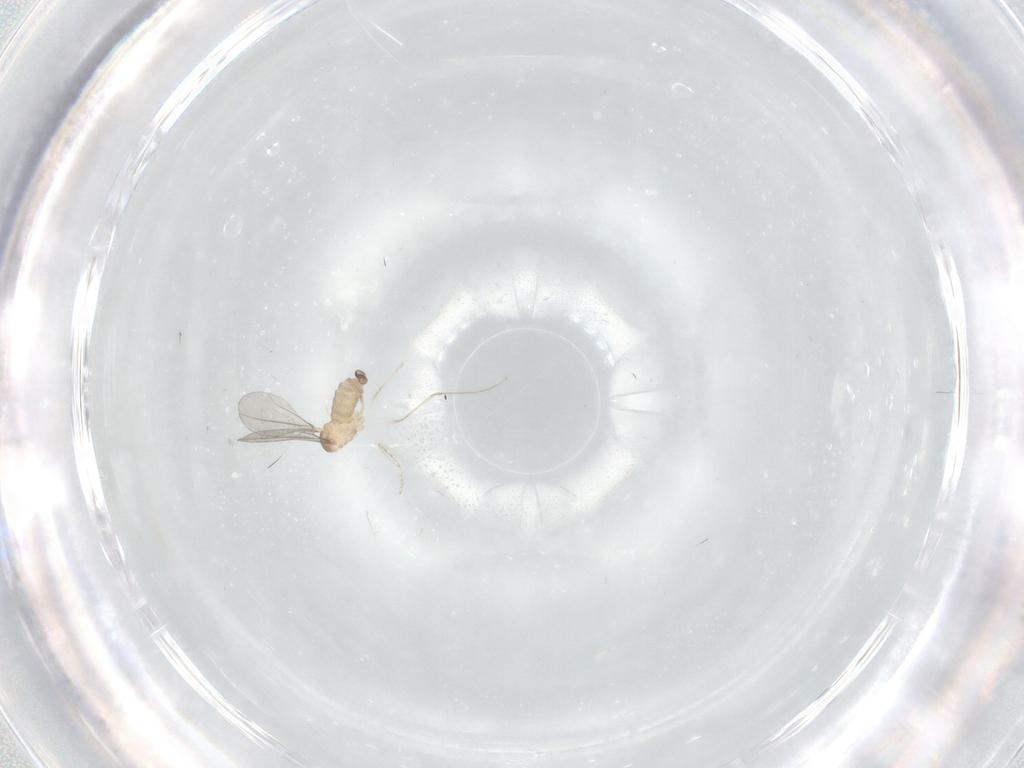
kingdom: Animalia
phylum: Arthropoda
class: Insecta
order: Diptera
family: Cecidomyiidae
